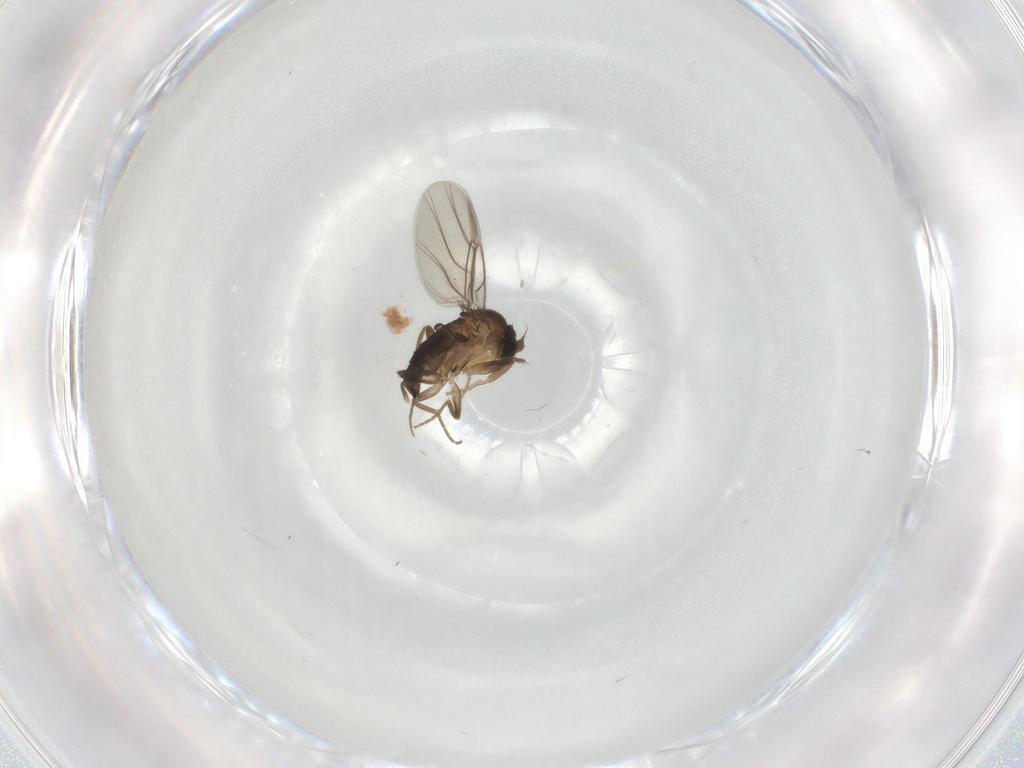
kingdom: Animalia
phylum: Arthropoda
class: Insecta
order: Diptera
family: Phoridae
